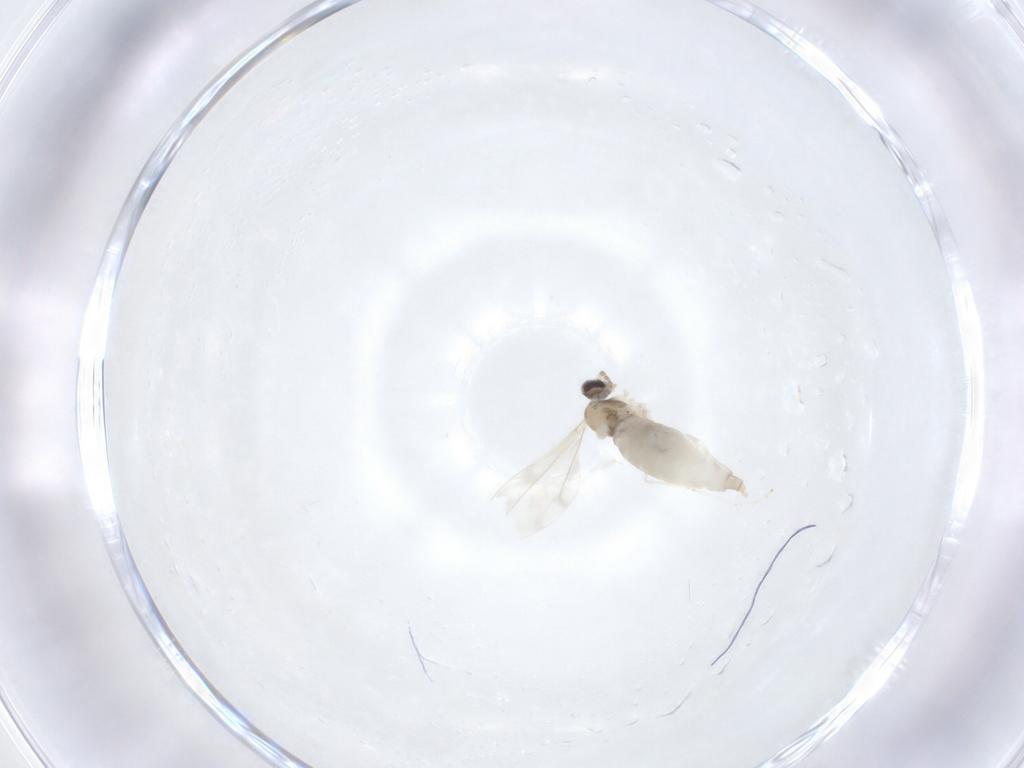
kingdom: Animalia
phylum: Arthropoda
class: Insecta
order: Diptera
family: Cecidomyiidae
